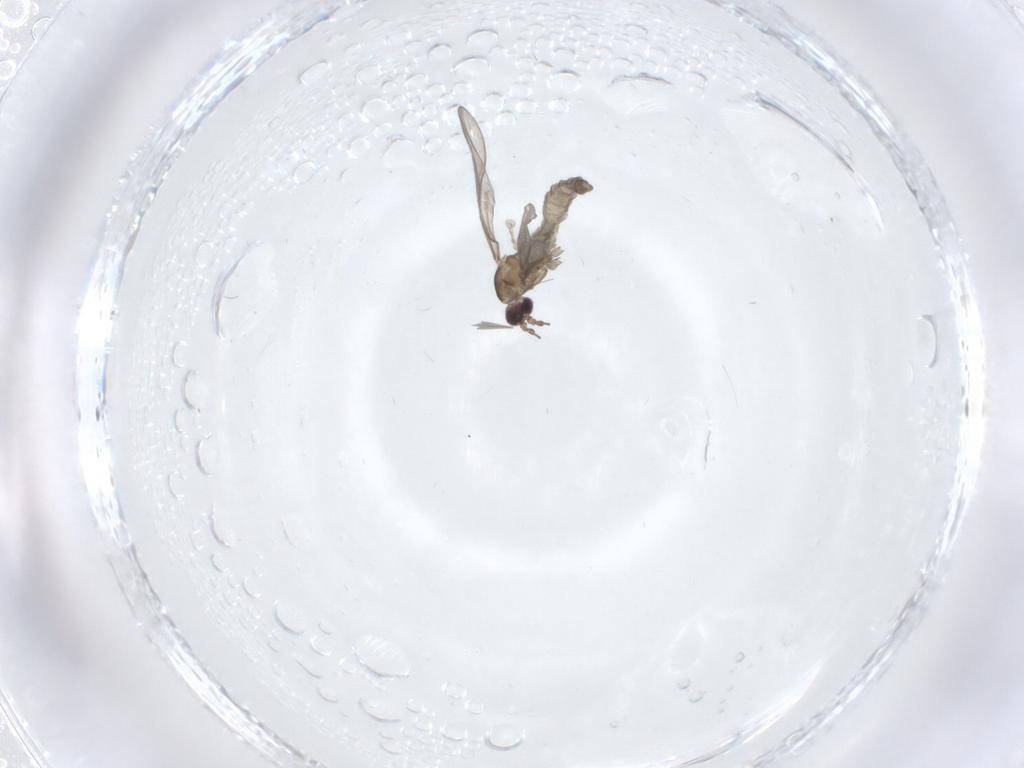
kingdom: Animalia
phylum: Arthropoda
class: Insecta
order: Diptera
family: Cecidomyiidae
